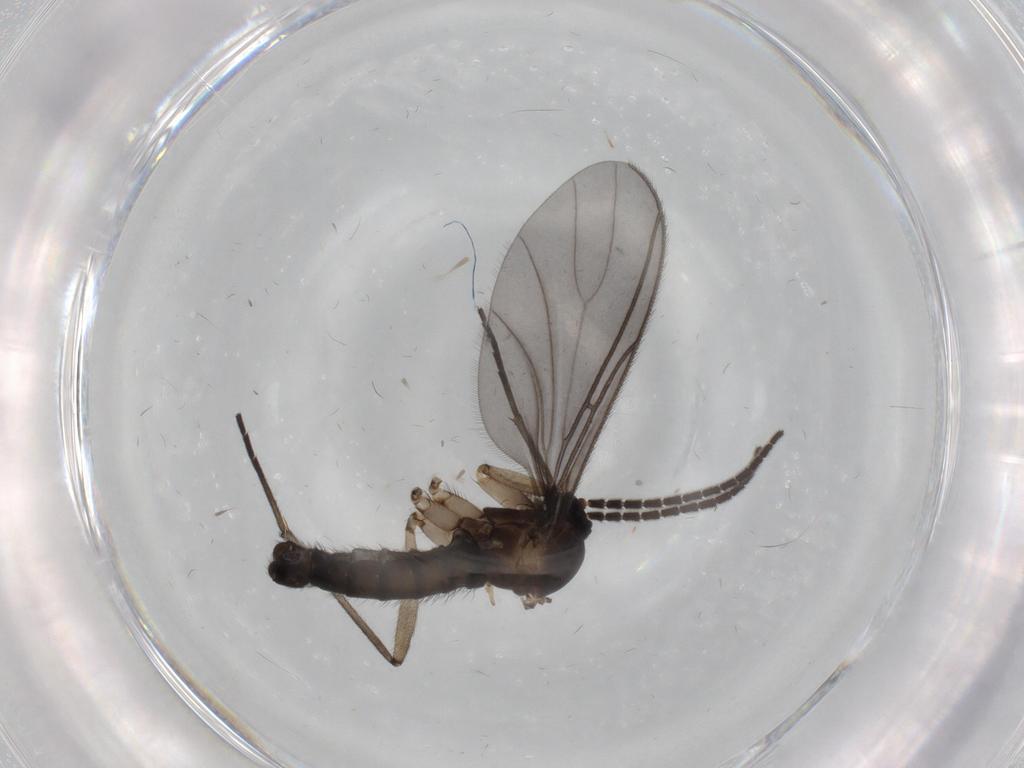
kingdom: Animalia
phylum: Arthropoda
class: Insecta
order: Diptera
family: Sciaridae
